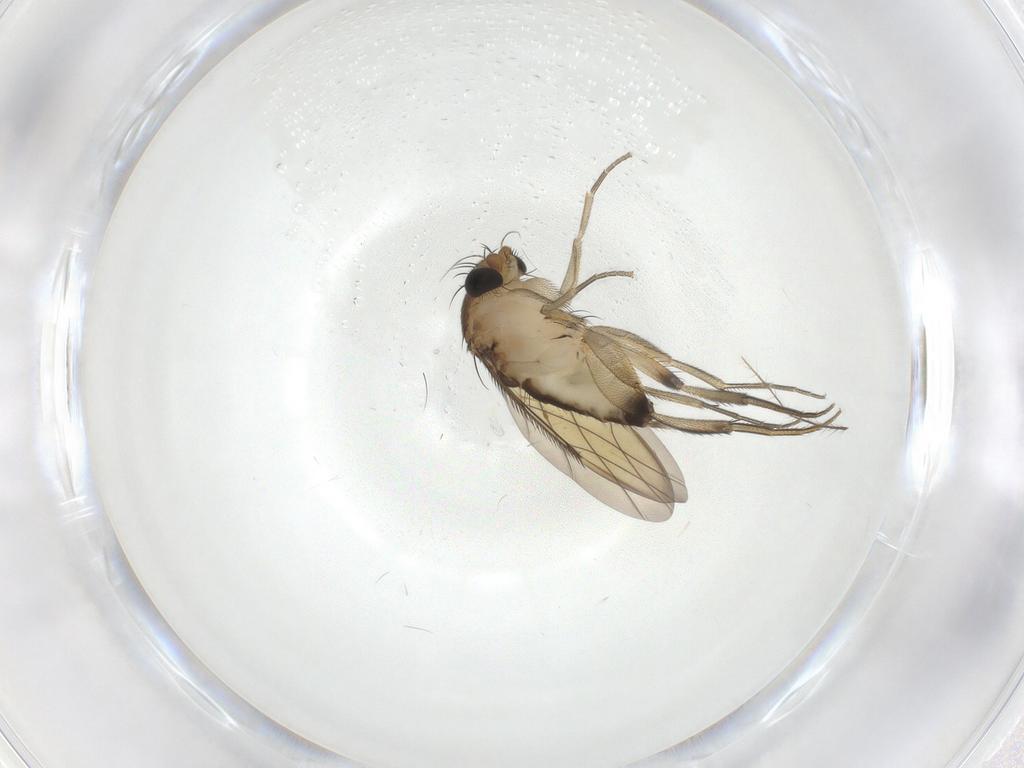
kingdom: Animalia
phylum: Arthropoda
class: Insecta
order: Diptera
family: Phoridae
